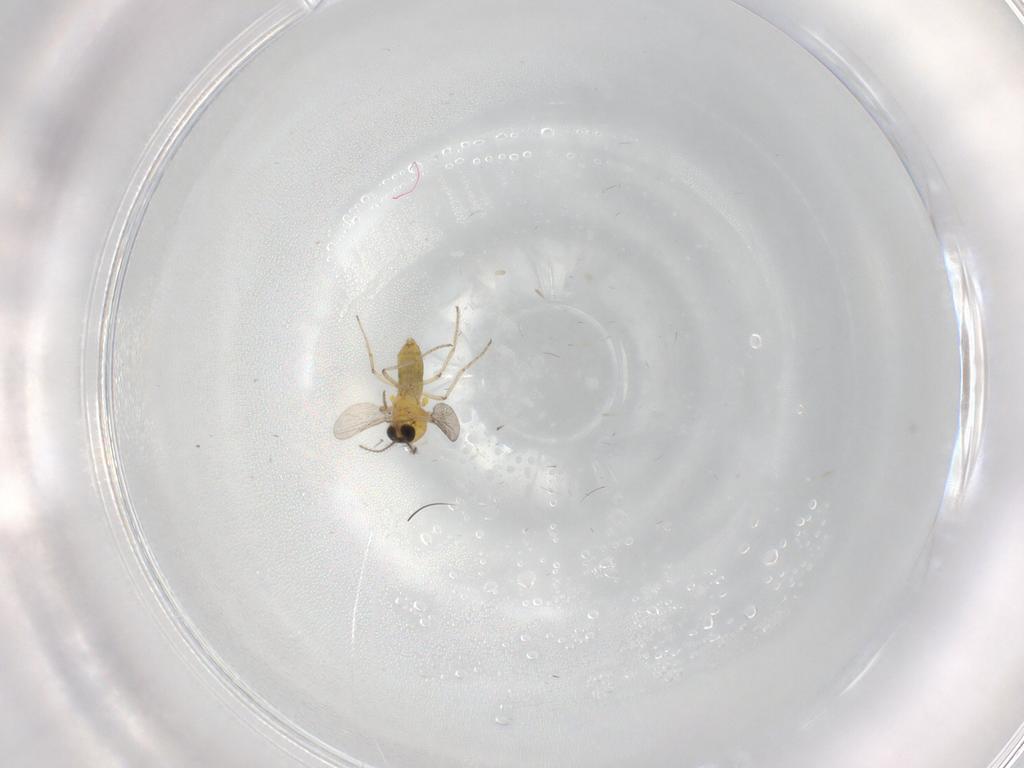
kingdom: Animalia
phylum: Arthropoda
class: Insecta
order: Diptera
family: Ceratopogonidae
